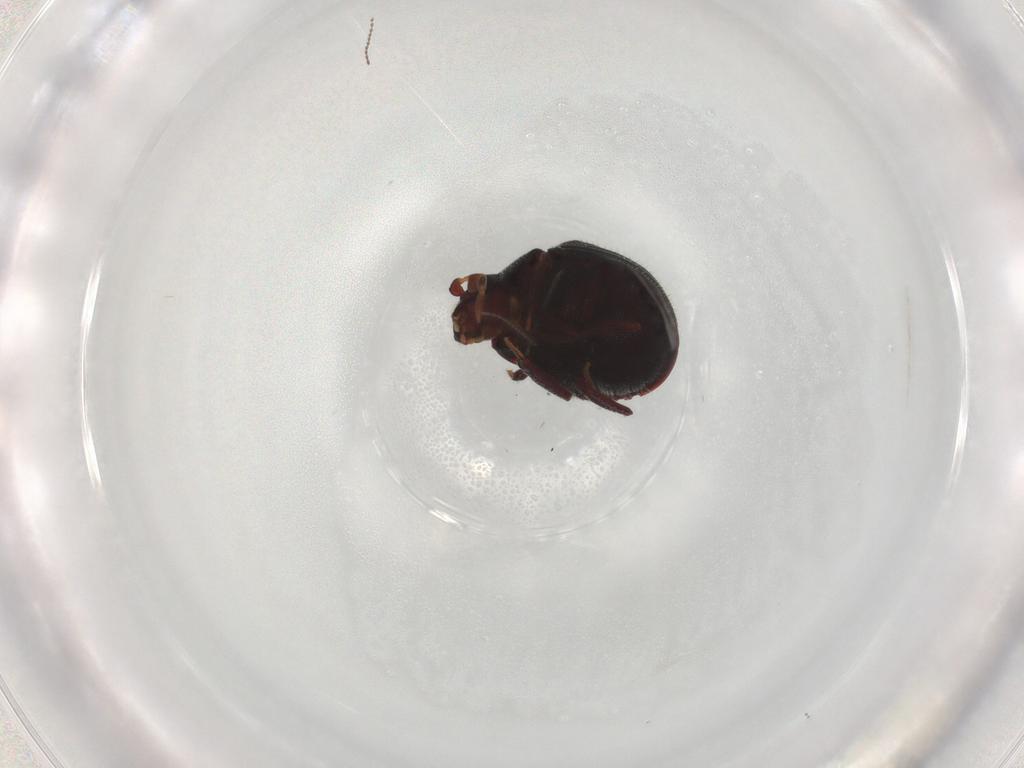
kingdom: Animalia
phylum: Arthropoda
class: Insecta
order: Coleoptera
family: Ptinidae
